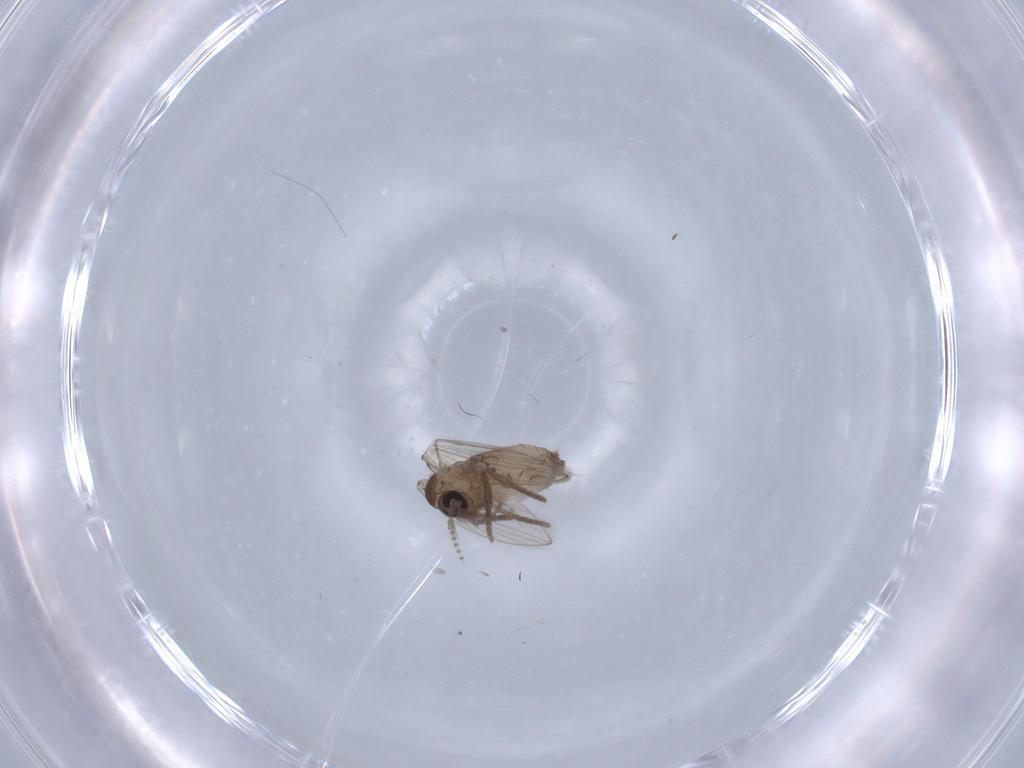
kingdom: Animalia
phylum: Arthropoda
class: Insecta
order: Diptera
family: Psychodidae
